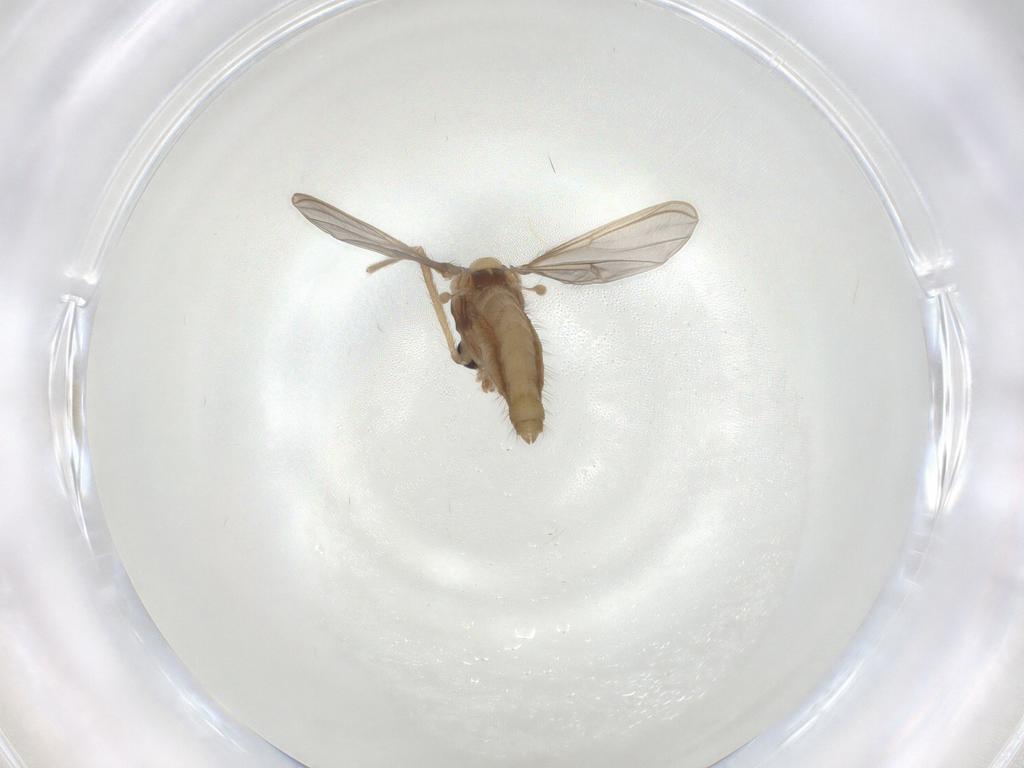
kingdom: Animalia
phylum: Arthropoda
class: Insecta
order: Diptera
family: Chironomidae
